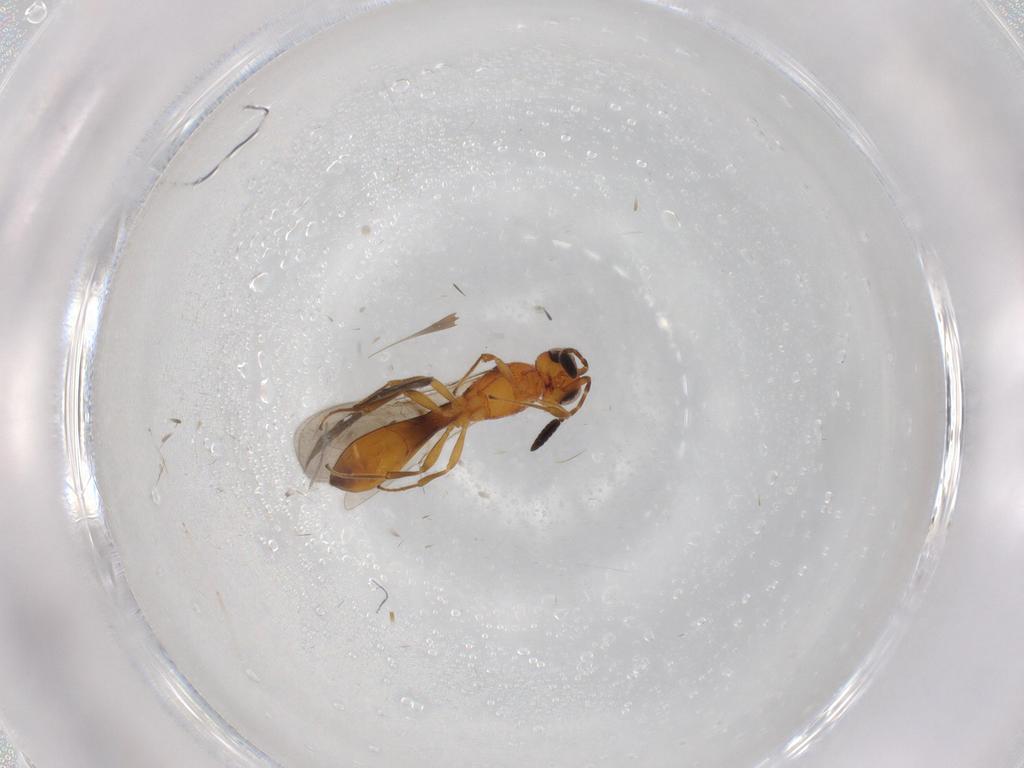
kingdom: Animalia
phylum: Arthropoda
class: Insecta
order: Hymenoptera
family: Scelionidae
